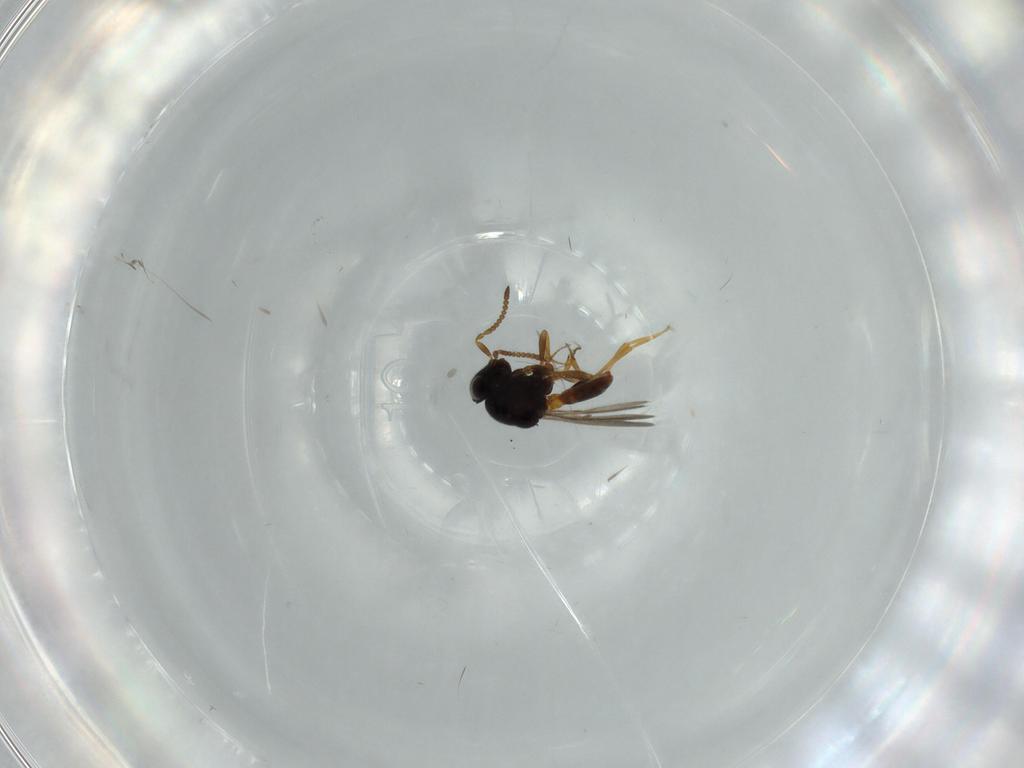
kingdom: Animalia
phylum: Arthropoda
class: Insecta
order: Hymenoptera
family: Scelionidae
